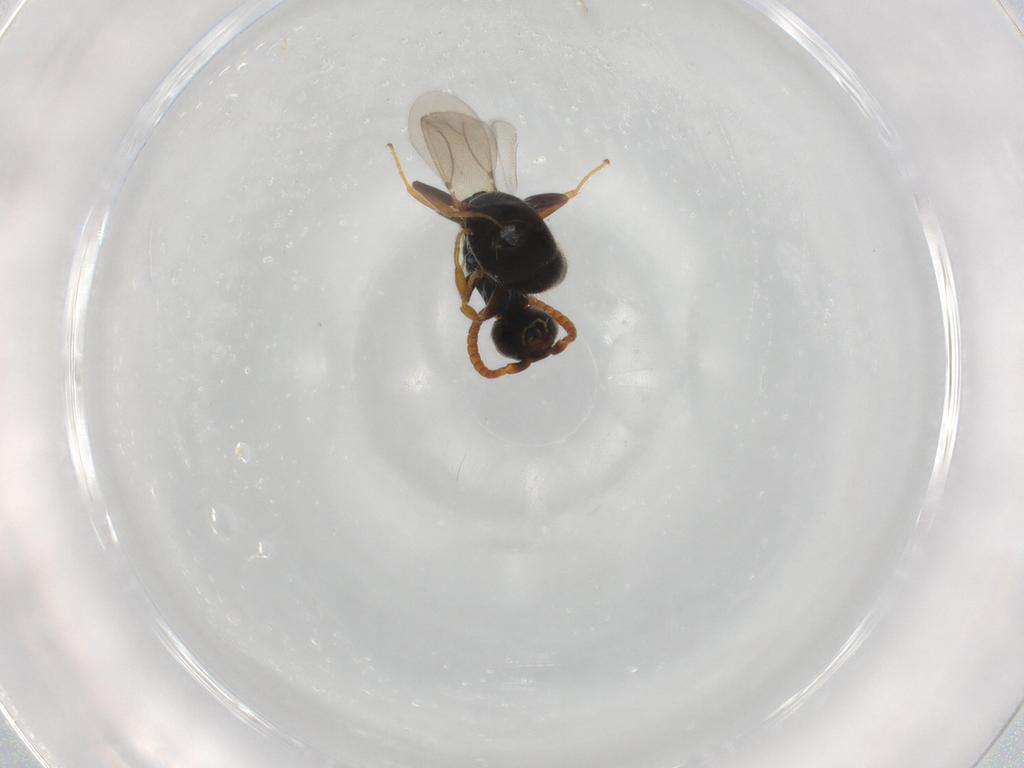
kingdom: Animalia
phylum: Arthropoda
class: Insecta
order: Hymenoptera
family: Bethylidae
